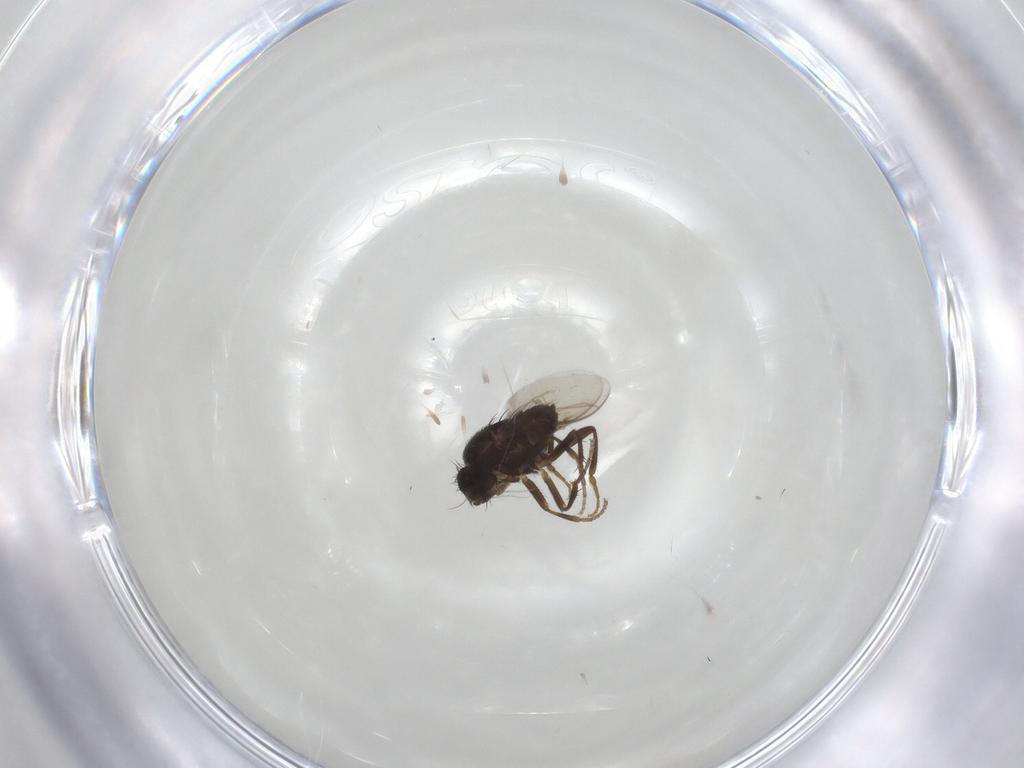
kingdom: Animalia
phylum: Arthropoda
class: Insecta
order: Diptera
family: Sphaeroceridae
